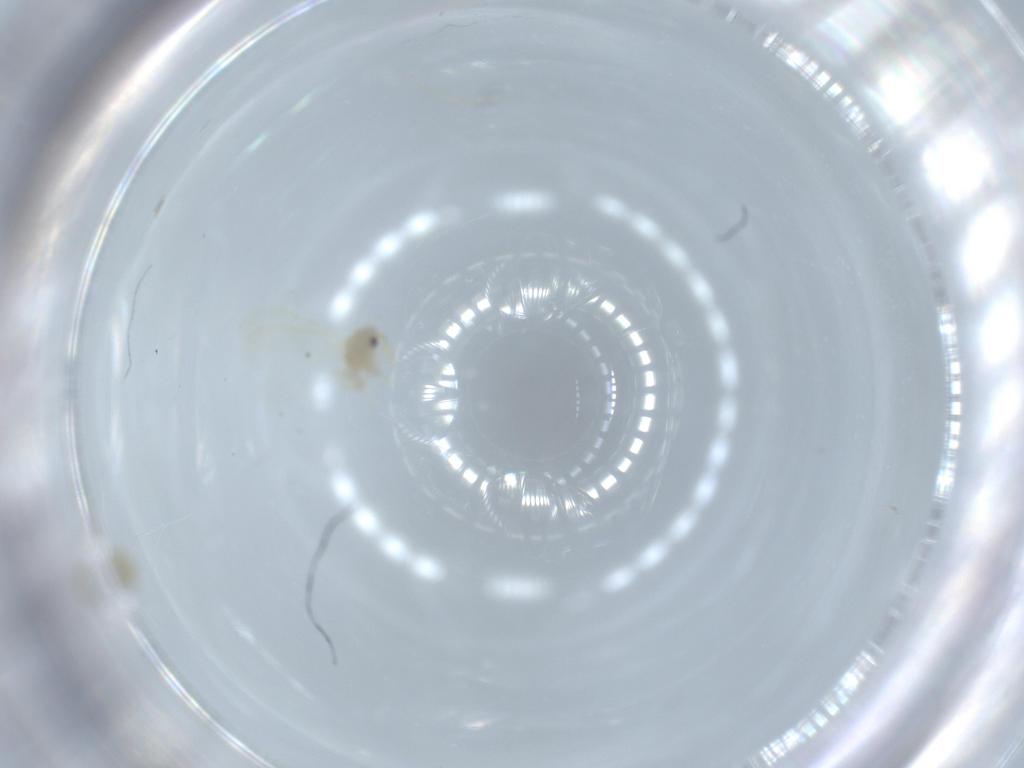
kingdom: Animalia
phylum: Arthropoda
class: Insecta
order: Hemiptera
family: Aleyrodidae
